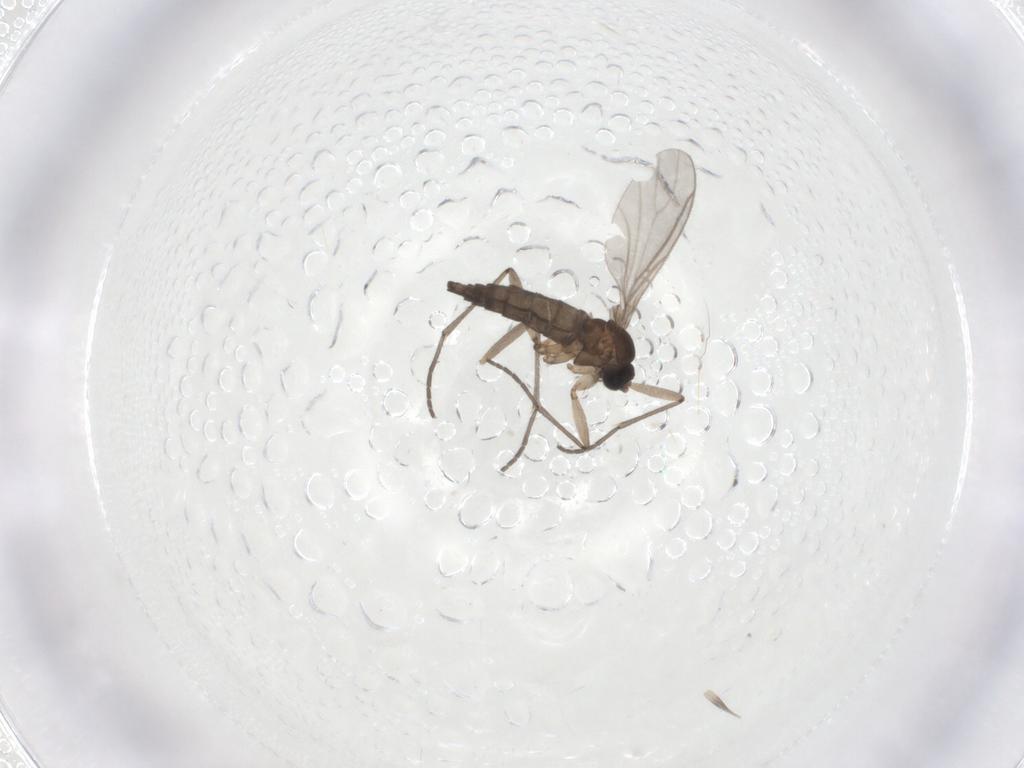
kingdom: Animalia
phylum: Arthropoda
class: Insecta
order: Diptera
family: Sciaridae
